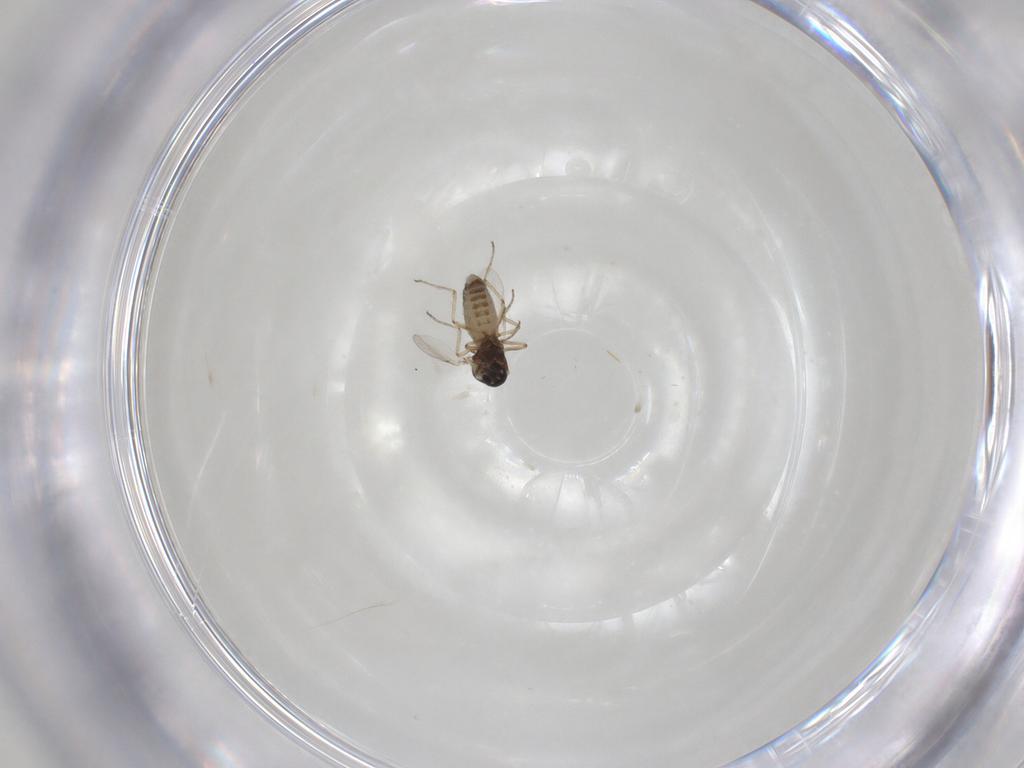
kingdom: Animalia
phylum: Arthropoda
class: Insecta
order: Diptera
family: Ceratopogonidae
